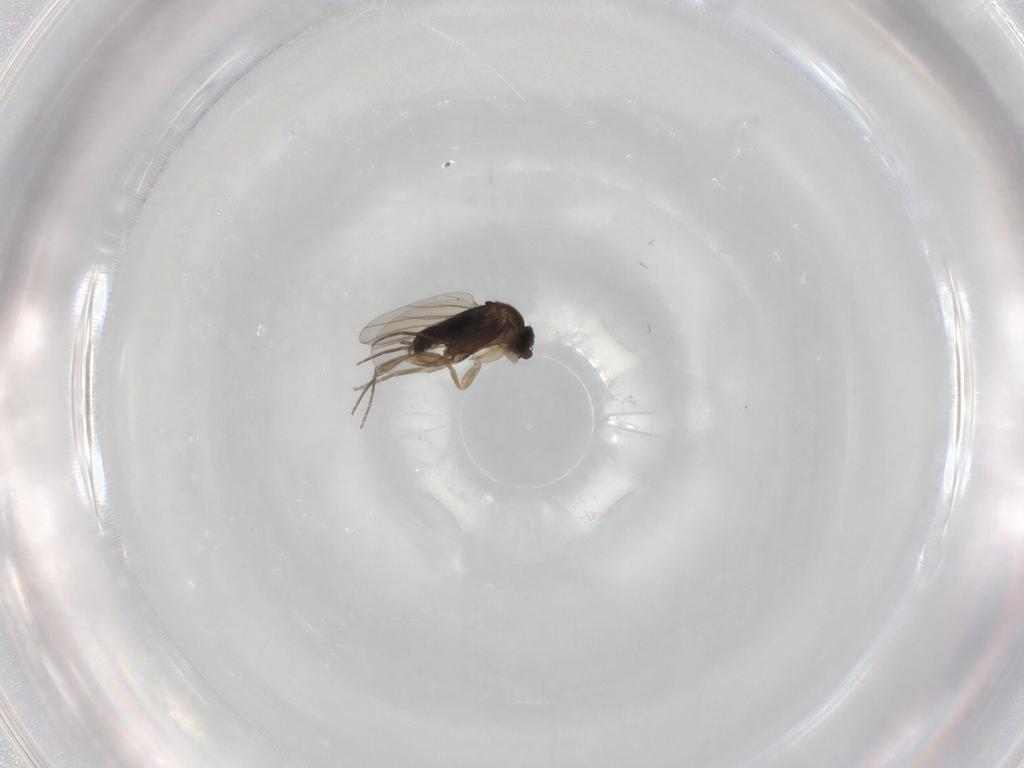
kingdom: Animalia
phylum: Arthropoda
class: Insecta
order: Diptera
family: Phoridae
